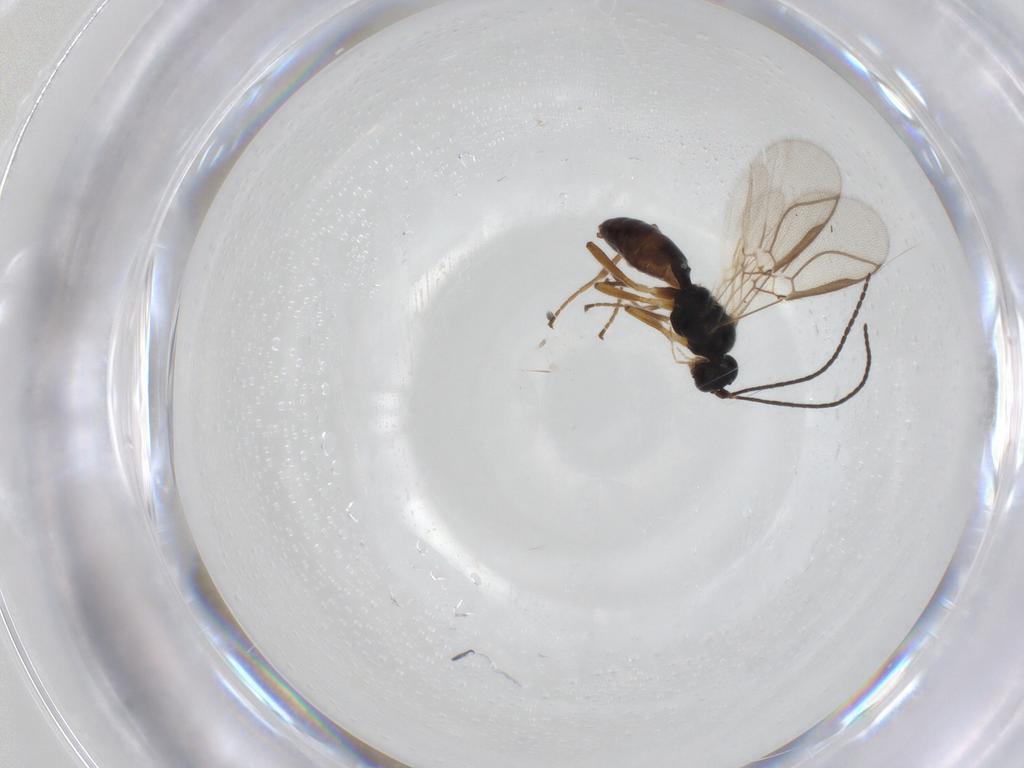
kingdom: Animalia
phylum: Arthropoda
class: Insecta
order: Hymenoptera
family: Braconidae
